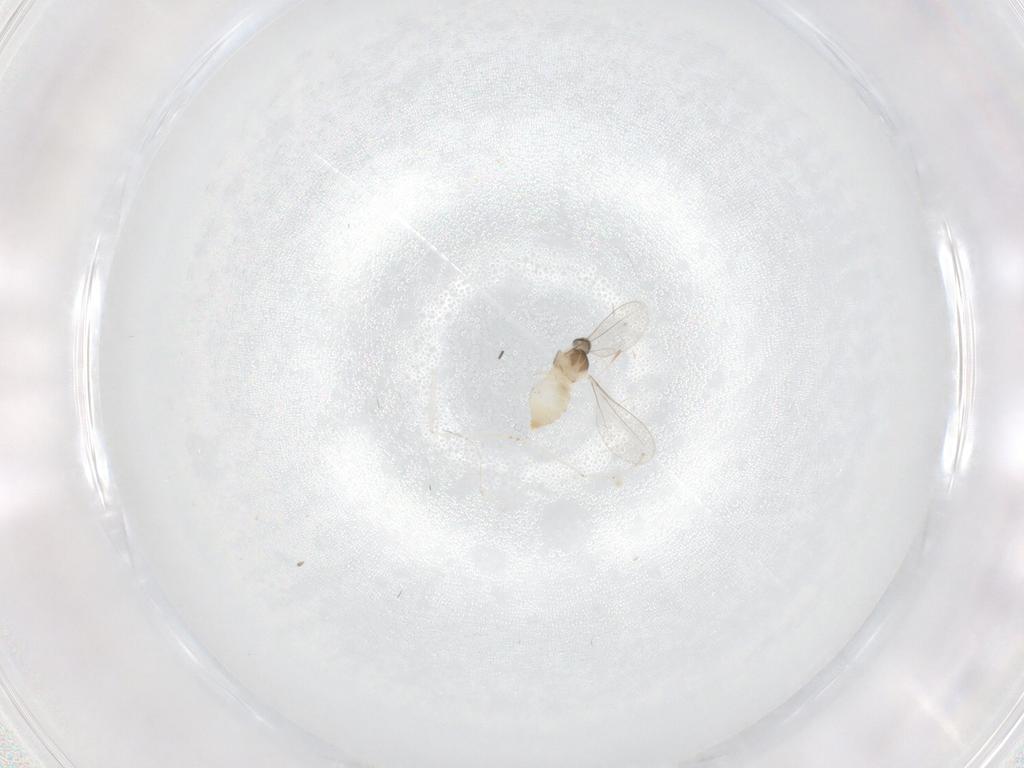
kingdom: Animalia
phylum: Arthropoda
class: Insecta
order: Diptera
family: Cecidomyiidae
